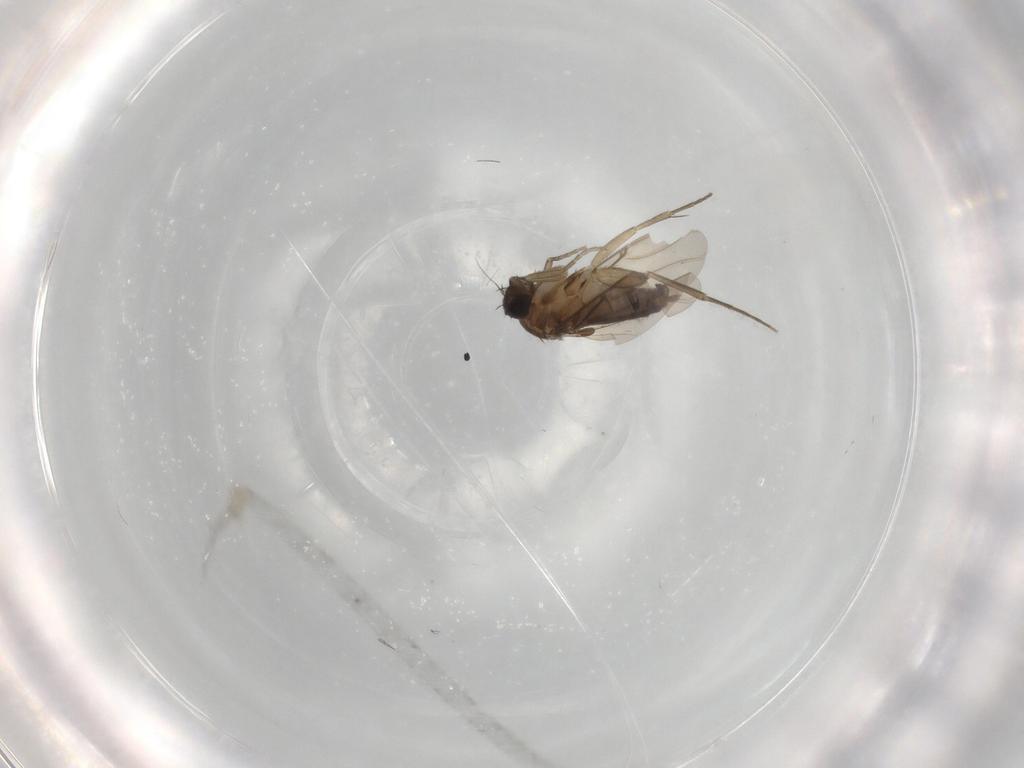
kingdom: Animalia
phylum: Arthropoda
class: Insecta
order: Diptera
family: Phoridae
